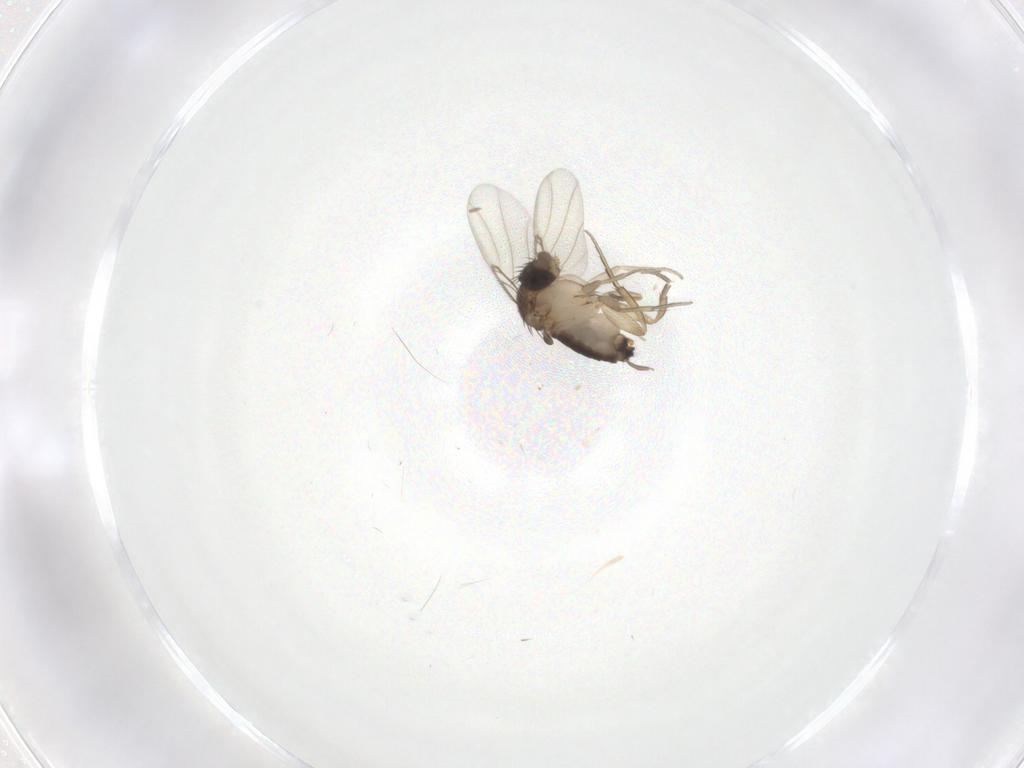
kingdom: Animalia
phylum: Arthropoda
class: Insecta
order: Diptera
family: Phoridae
